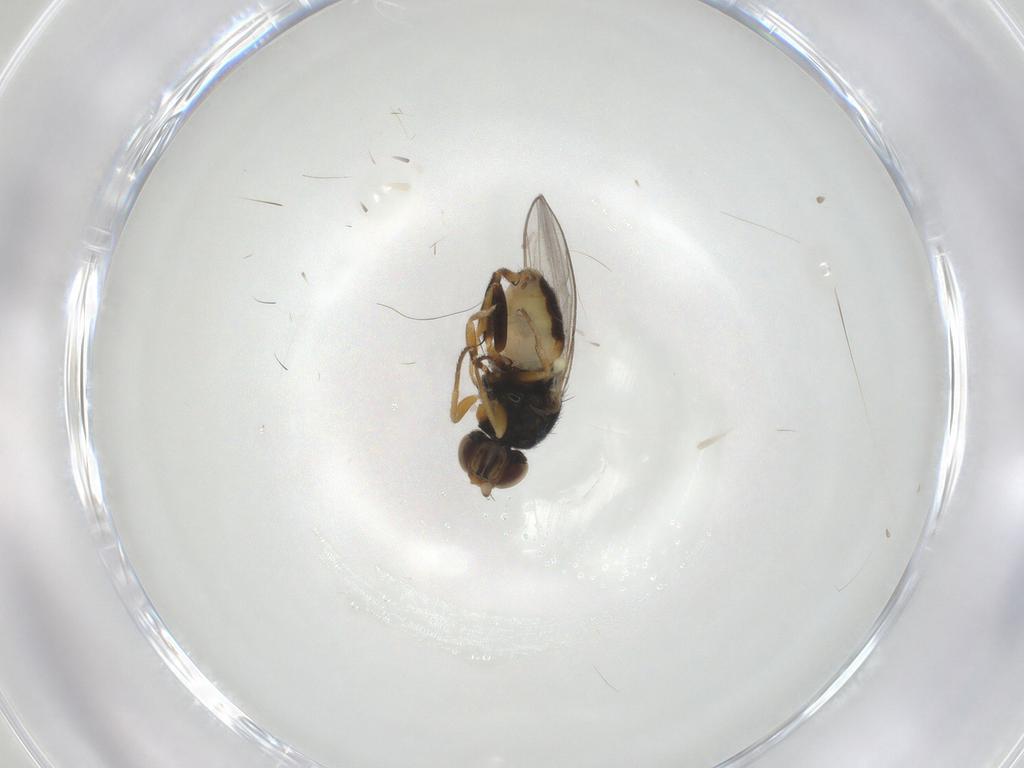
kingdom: Animalia
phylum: Arthropoda
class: Insecta
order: Diptera
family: Chloropidae
